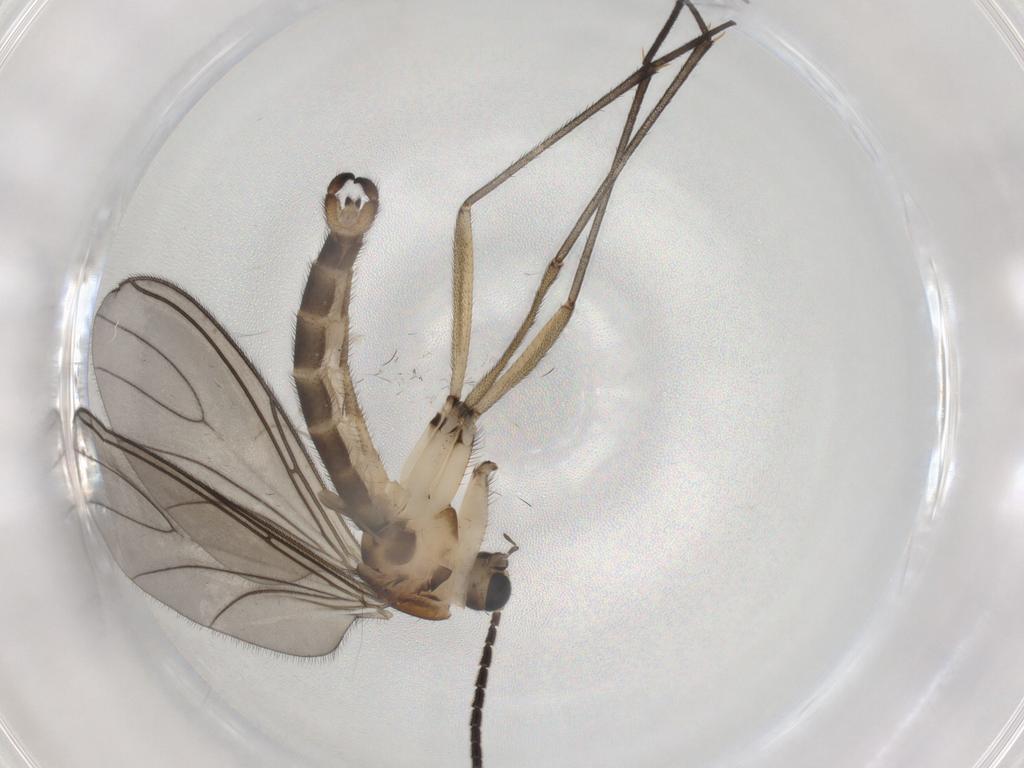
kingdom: Animalia
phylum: Arthropoda
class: Insecta
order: Diptera
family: Sciaridae
